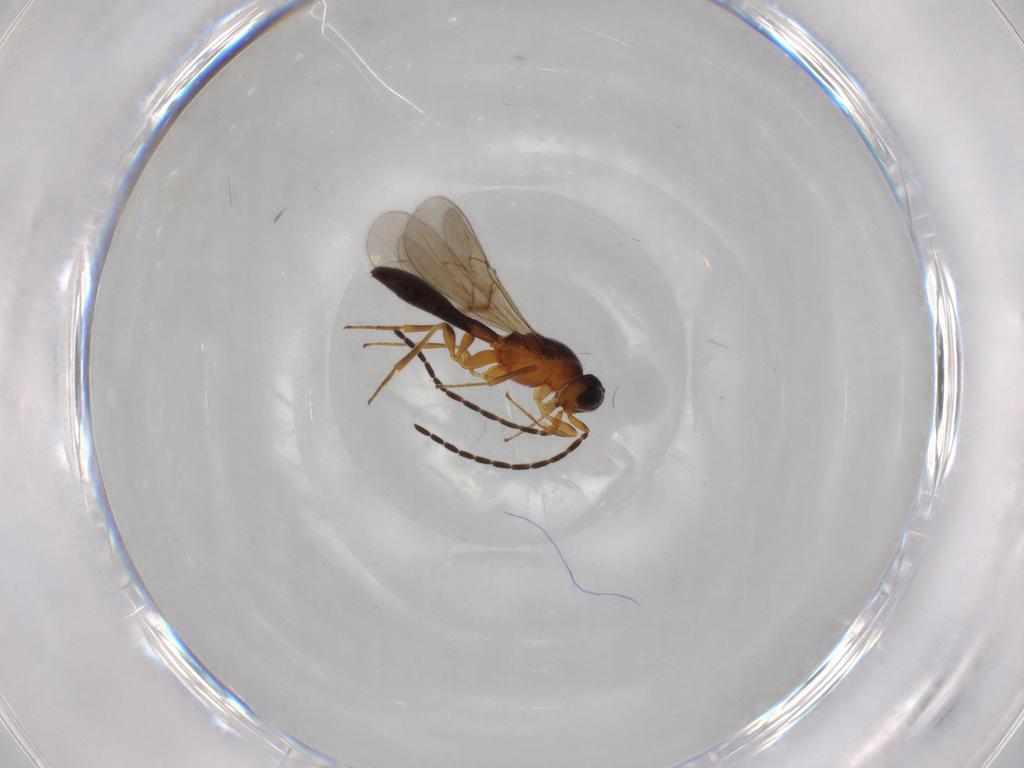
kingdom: Animalia
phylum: Arthropoda
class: Insecta
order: Hymenoptera
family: Scelionidae
